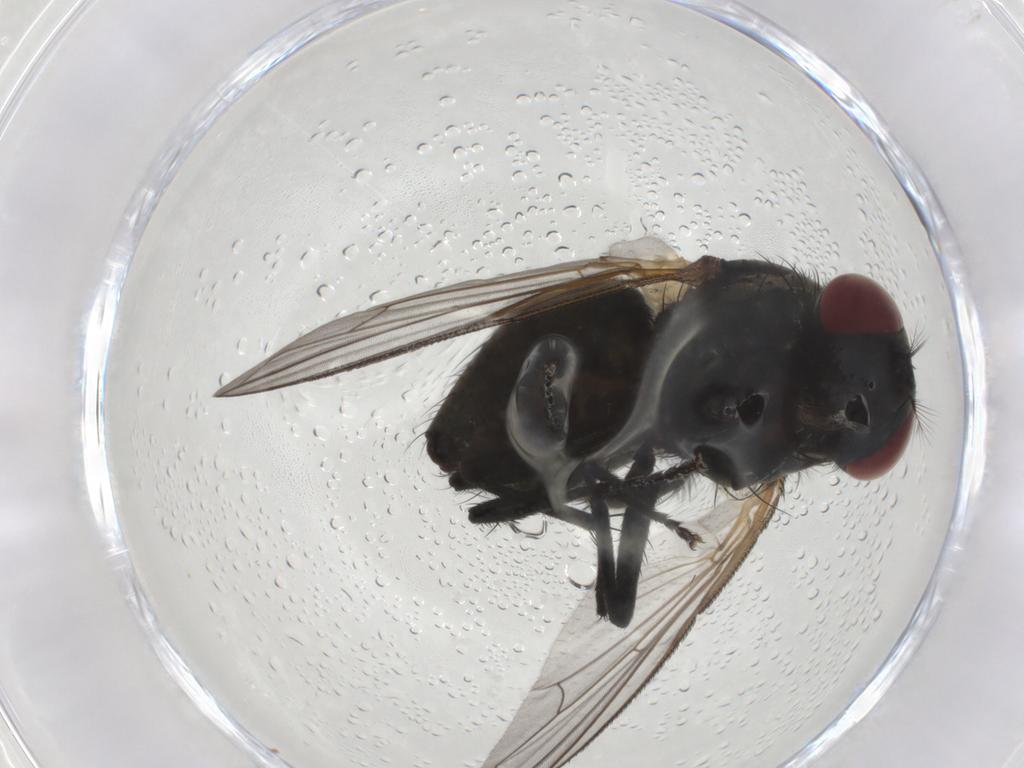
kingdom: Animalia
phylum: Arthropoda
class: Insecta
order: Diptera
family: Muscidae
